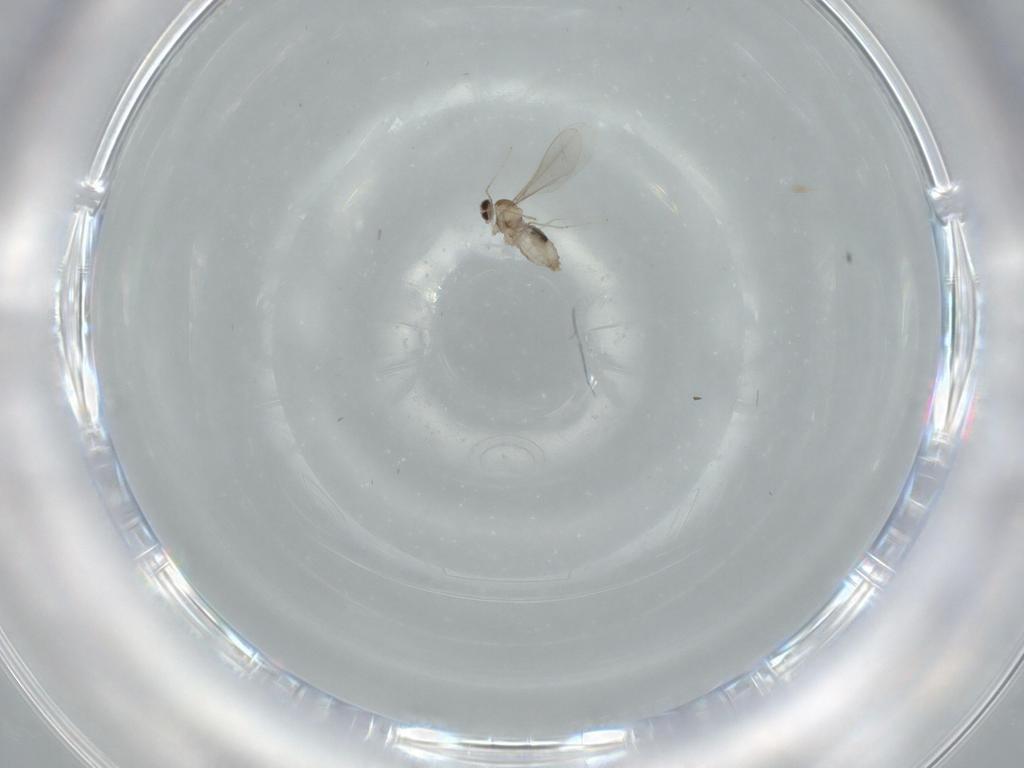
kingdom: Animalia
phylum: Arthropoda
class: Insecta
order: Diptera
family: Cecidomyiidae
